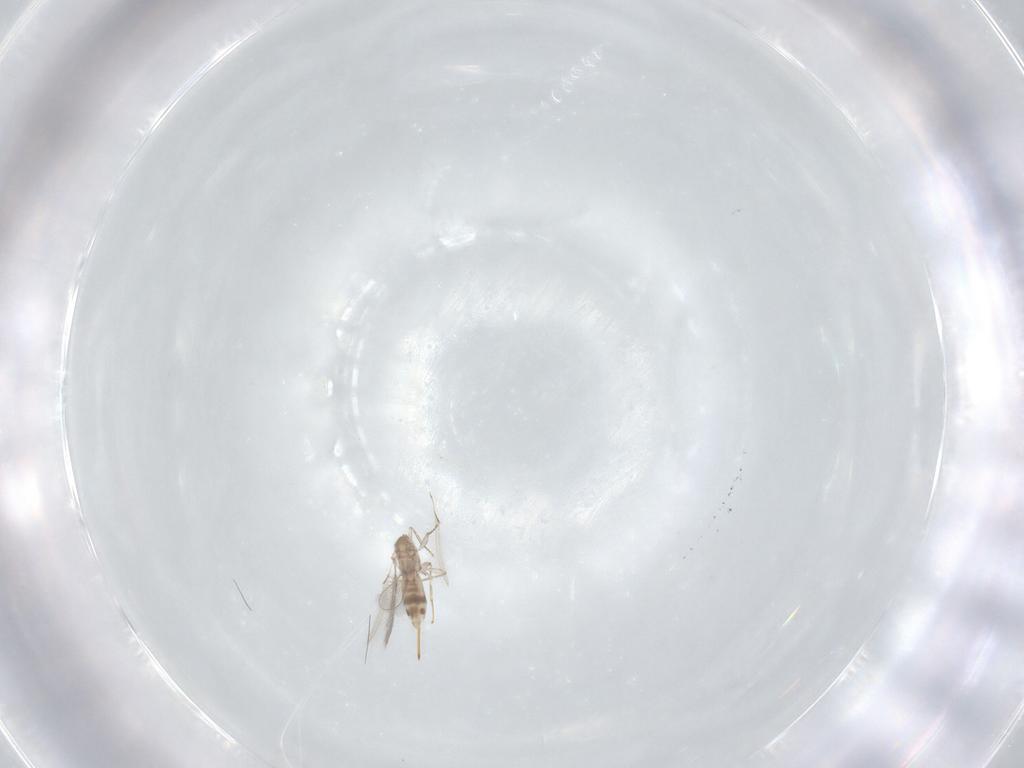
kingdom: Animalia
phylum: Arthropoda
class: Insecta
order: Hymenoptera
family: Mymaridae
